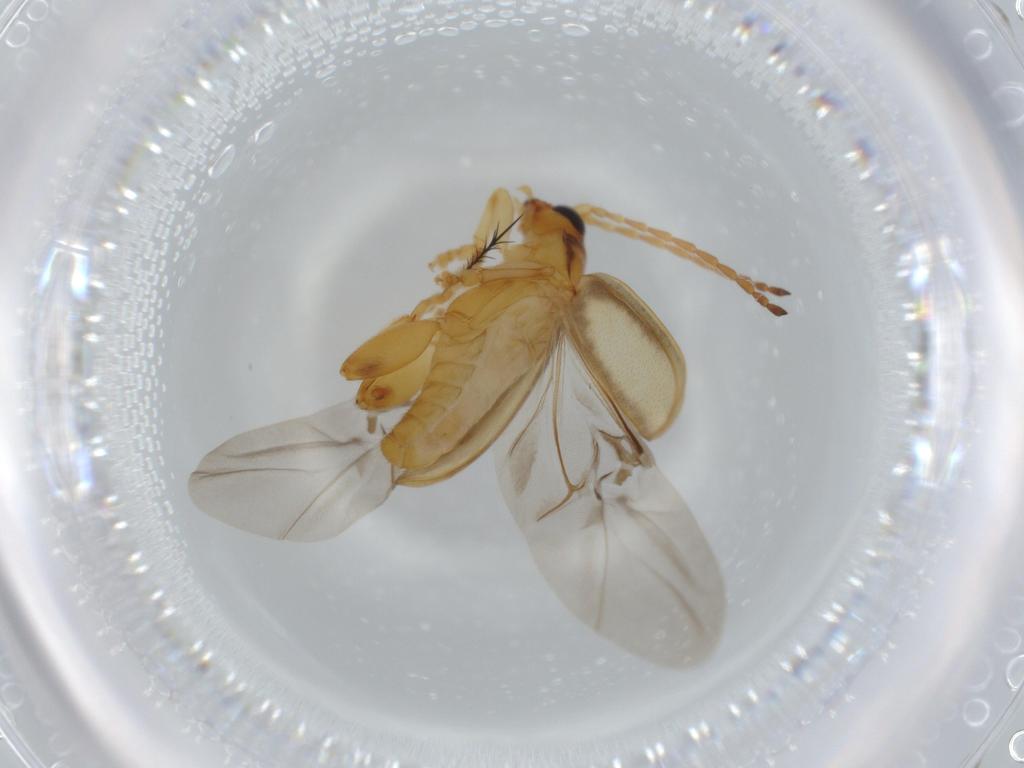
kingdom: Animalia
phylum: Arthropoda
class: Insecta
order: Coleoptera
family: Chrysomelidae
